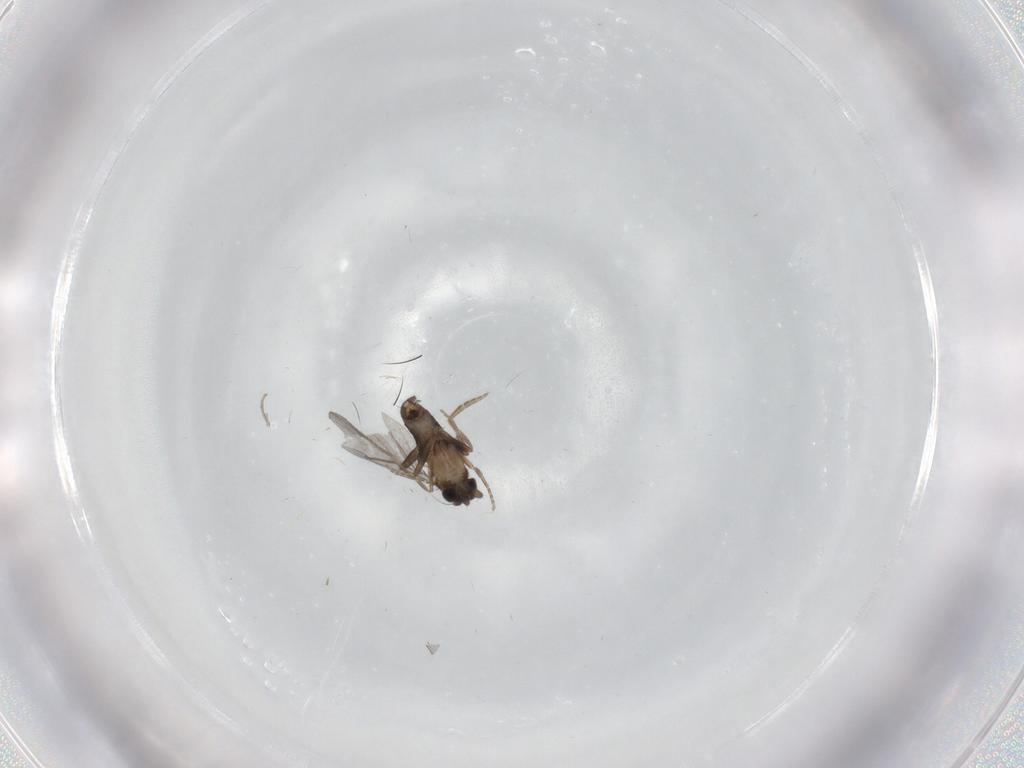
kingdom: Animalia
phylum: Arthropoda
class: Insecta
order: Diptera
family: Cecidomyiidae
